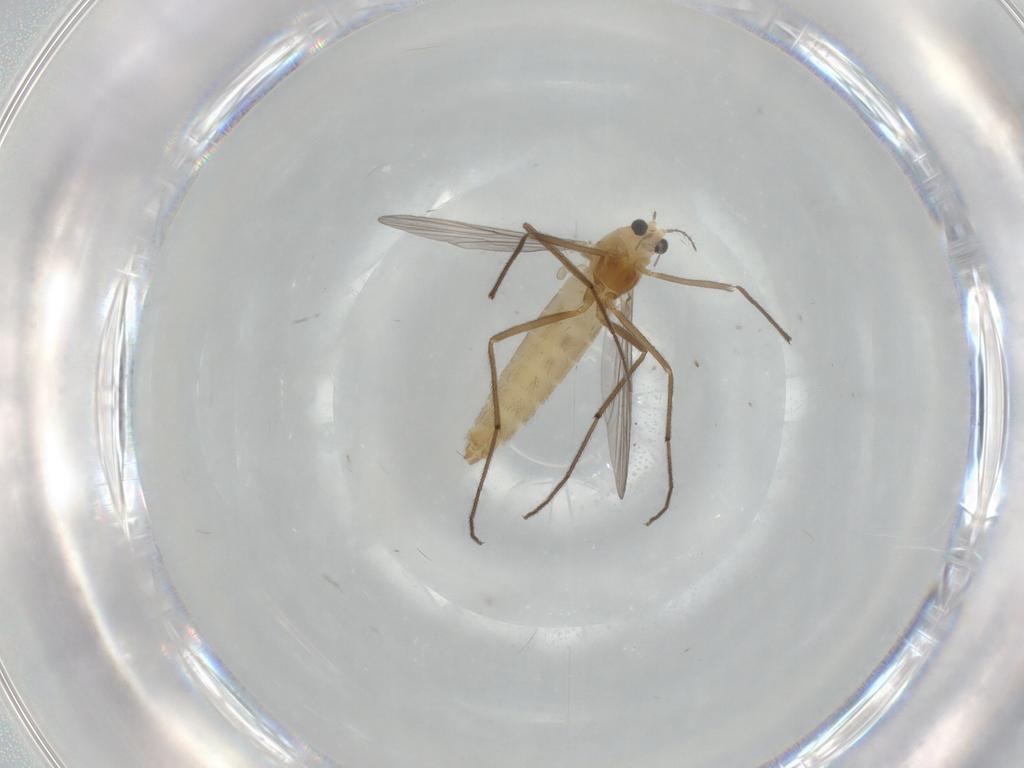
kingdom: Animalia
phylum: Arthropoda
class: Insecta
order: Diptera
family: Chironomidae
